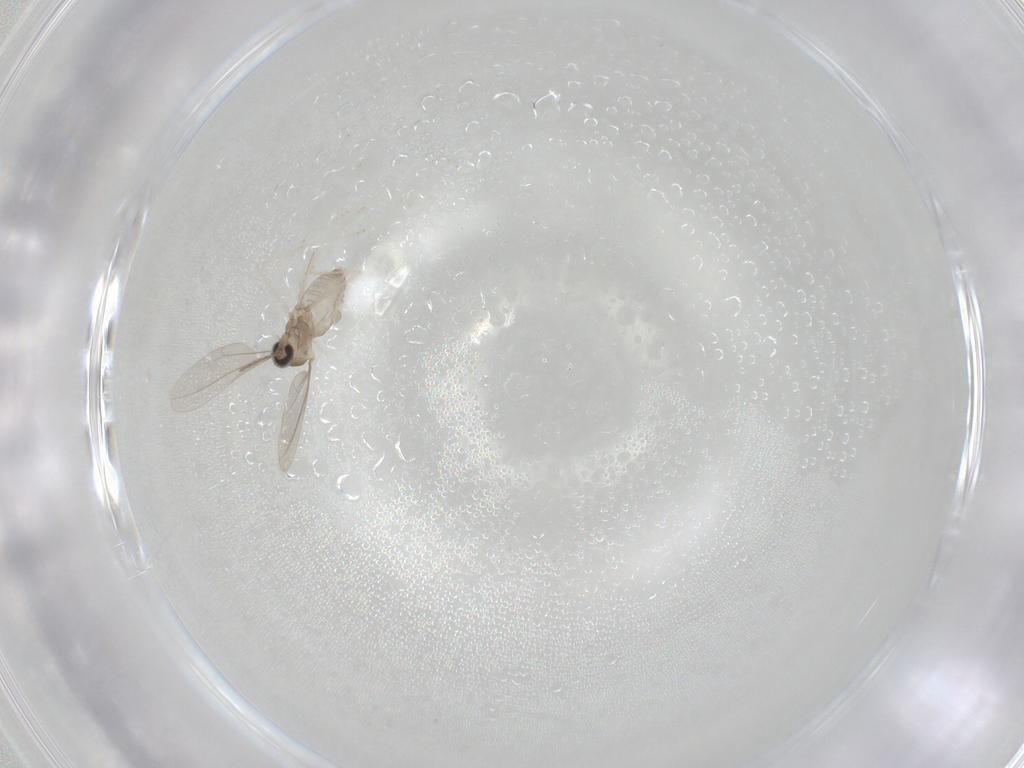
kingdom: Animalia
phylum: Arthropoda
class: Insecta
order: Diptera
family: Cecidomyiidae
